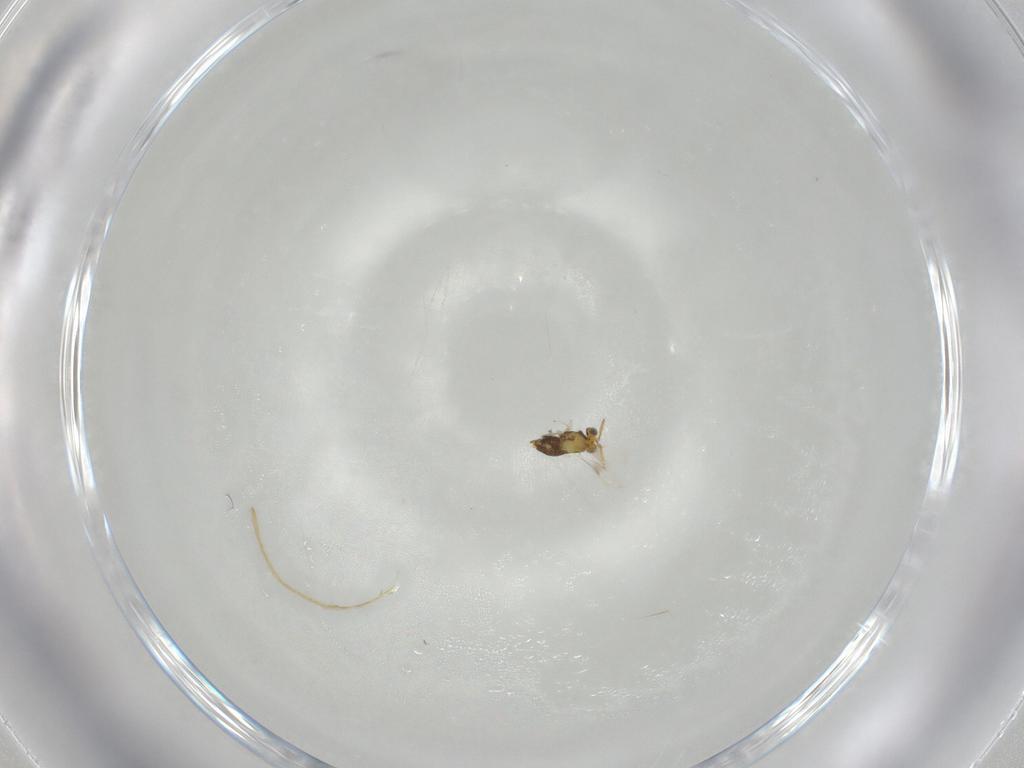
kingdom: Animalia
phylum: Arthropoda
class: Insecta
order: Hymenoptera
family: Aphelinidae
